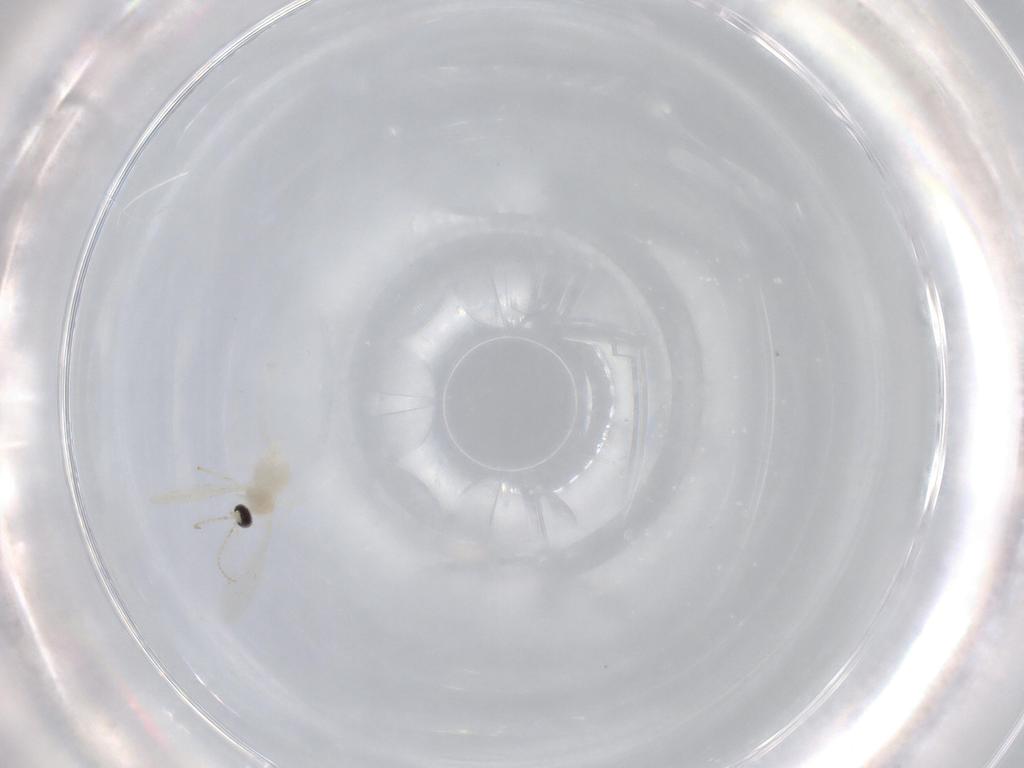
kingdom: Animalia
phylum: Arthropoda
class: Insecta
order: Diptera
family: Cecidomyiidae
